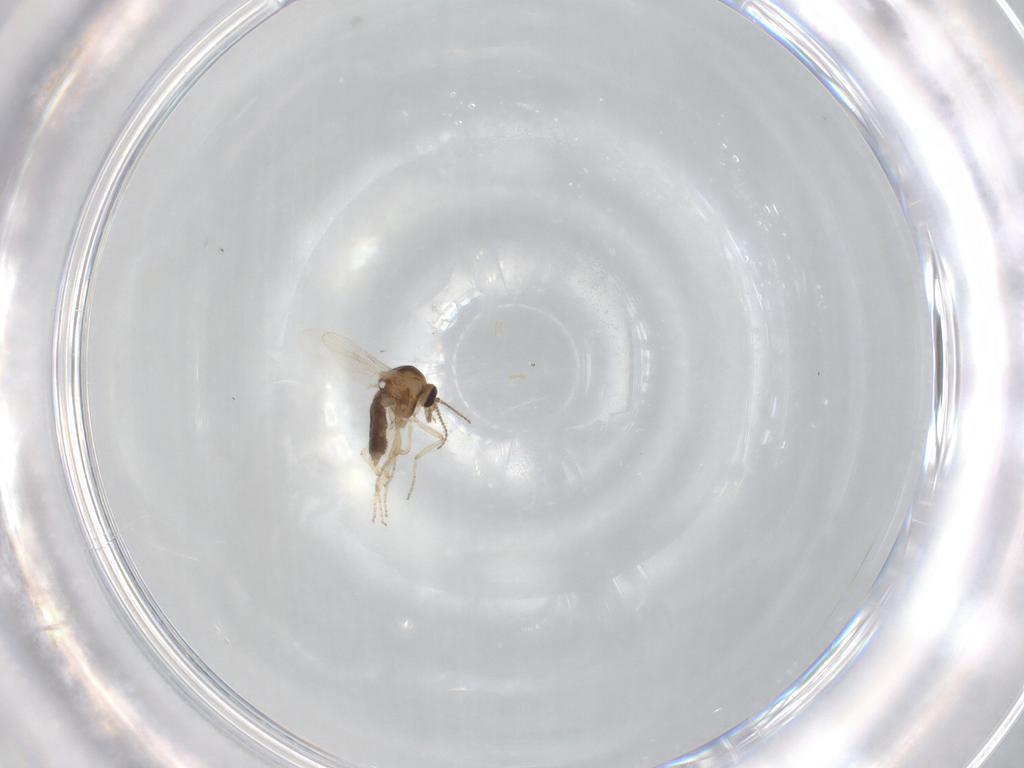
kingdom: Animalia
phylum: Arthropoda
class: Insecta
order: Diptera
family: Ceratopogonidae
